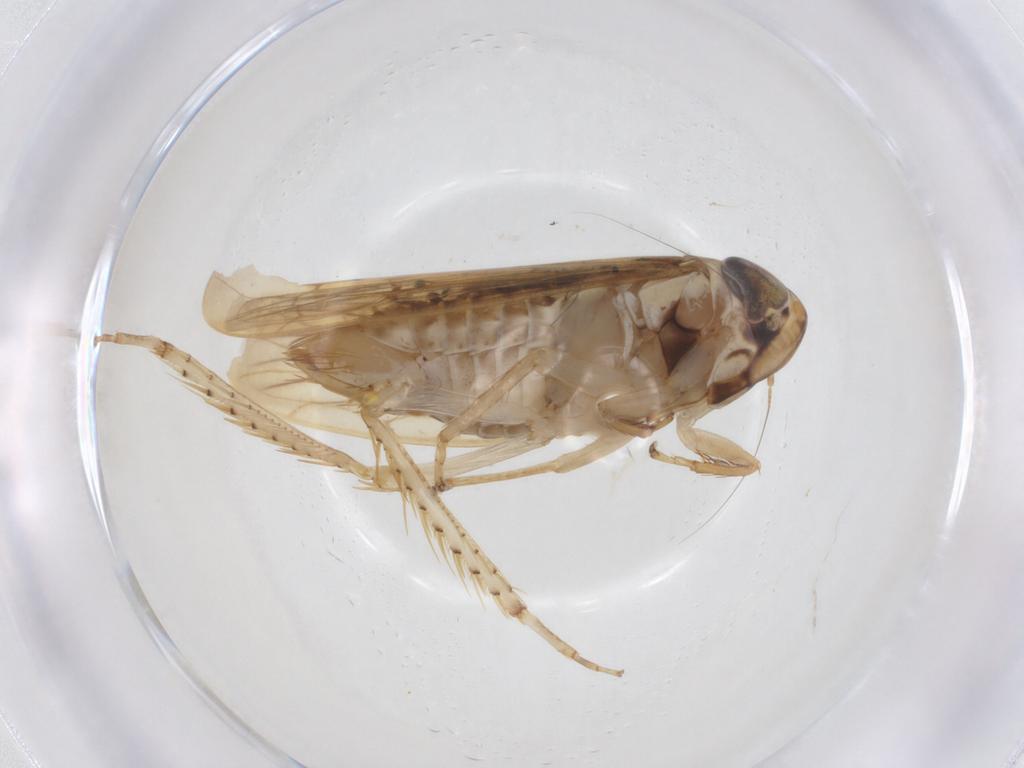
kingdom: Animalia
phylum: Arthropoda
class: Insecta
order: Hemiptera
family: Cicadellidae
